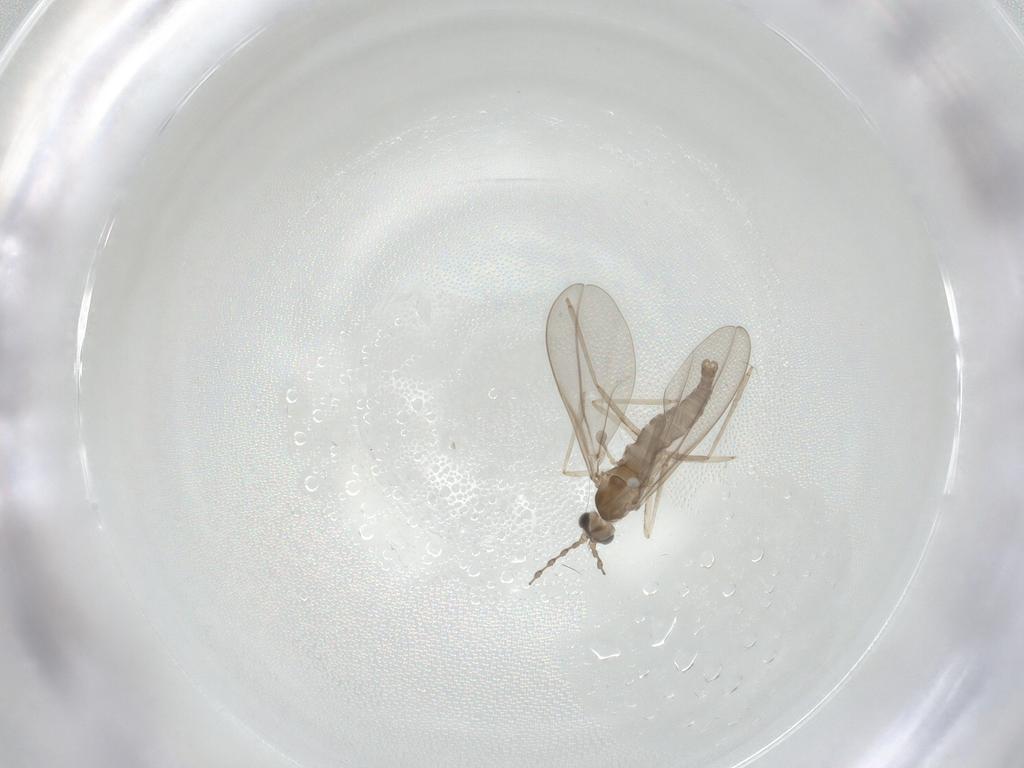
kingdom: Animalia
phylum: Arthropoda
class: Insecta
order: Diptera
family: Cecidomyiidae
